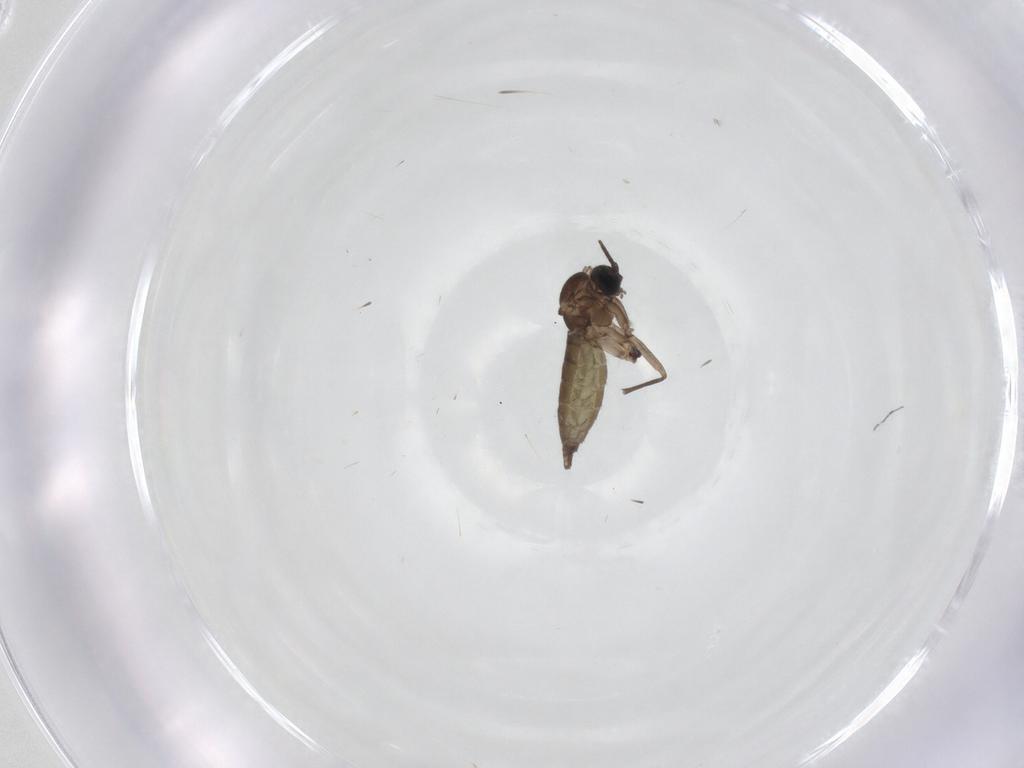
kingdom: Animalia
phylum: Arthropoda
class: Insecta
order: Diptera
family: Sciaridae
